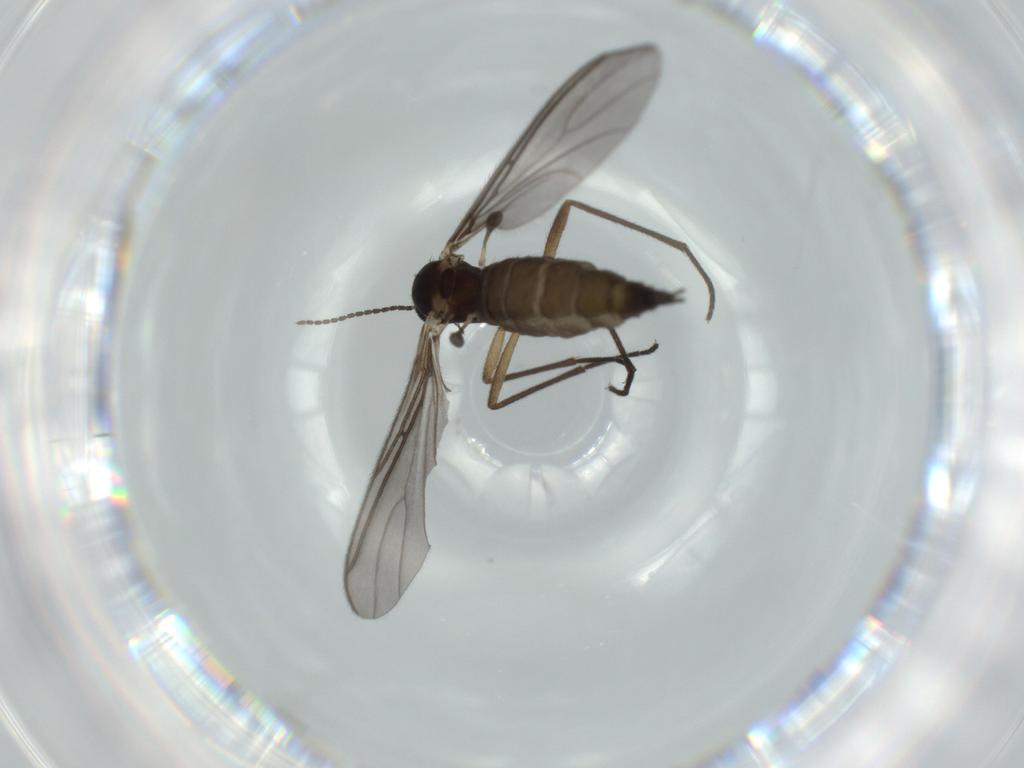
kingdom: Animalia
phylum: Arthropoda
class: Insecta
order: Diptera
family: Sciaridae
